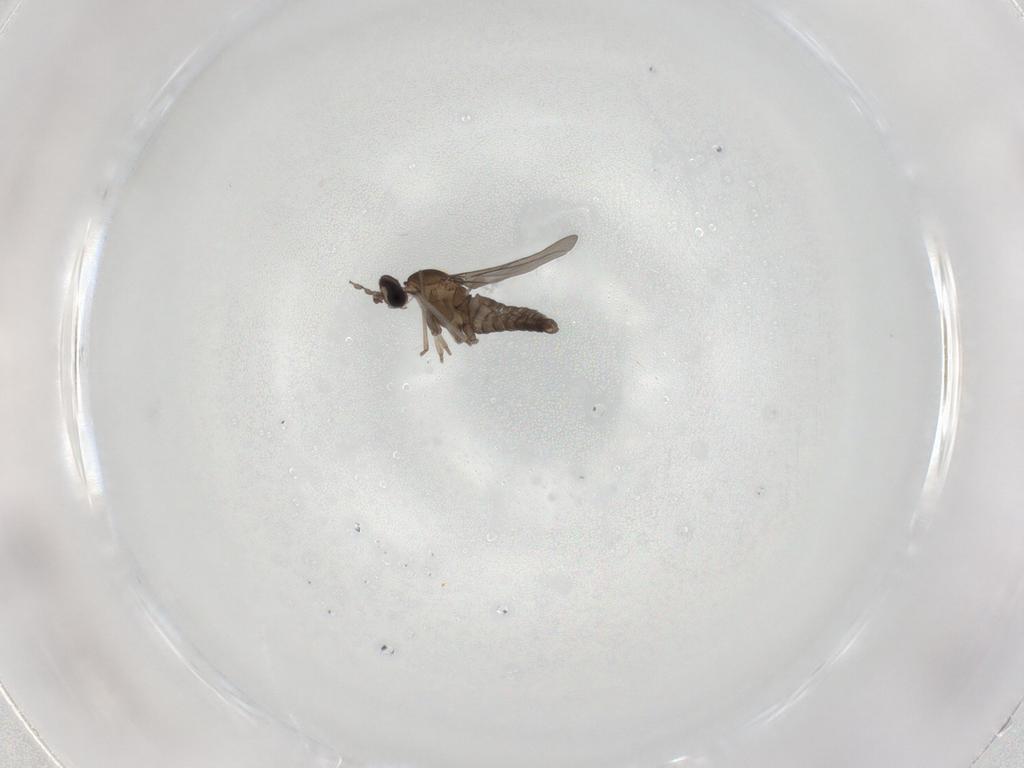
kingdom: Animalia
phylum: Arthropoda
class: Insecta
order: Diptera
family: Cecidomyiidae
